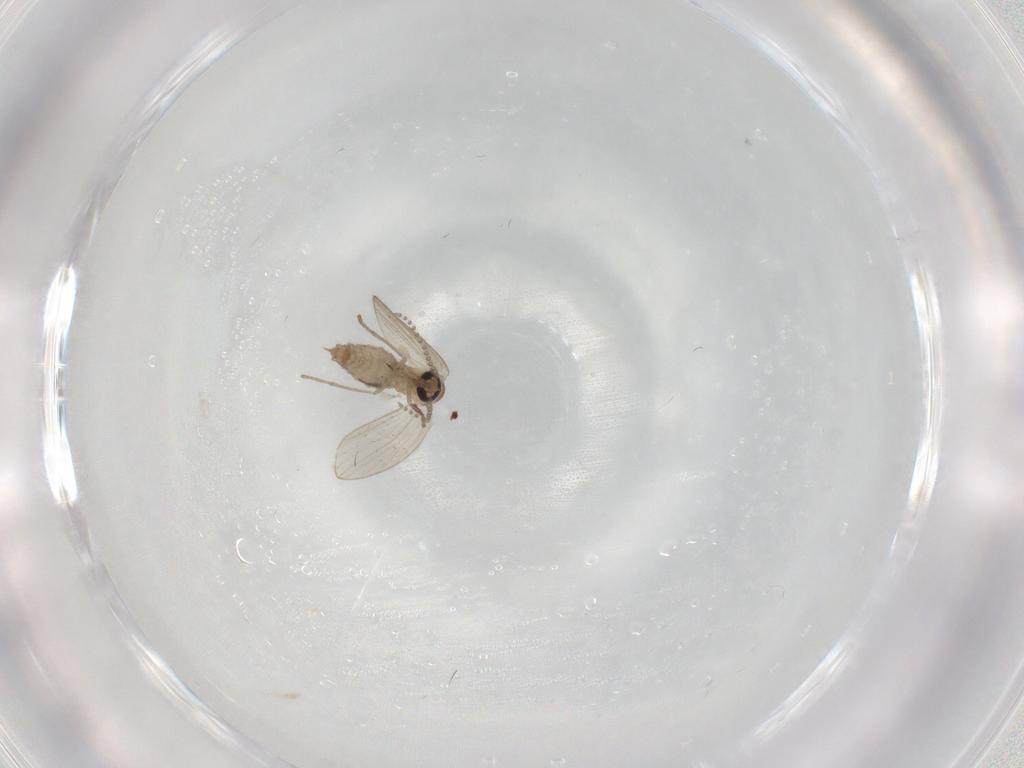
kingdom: Animalia
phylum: Arthropoda
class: Insecta
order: Diptera
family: Psychodidae
